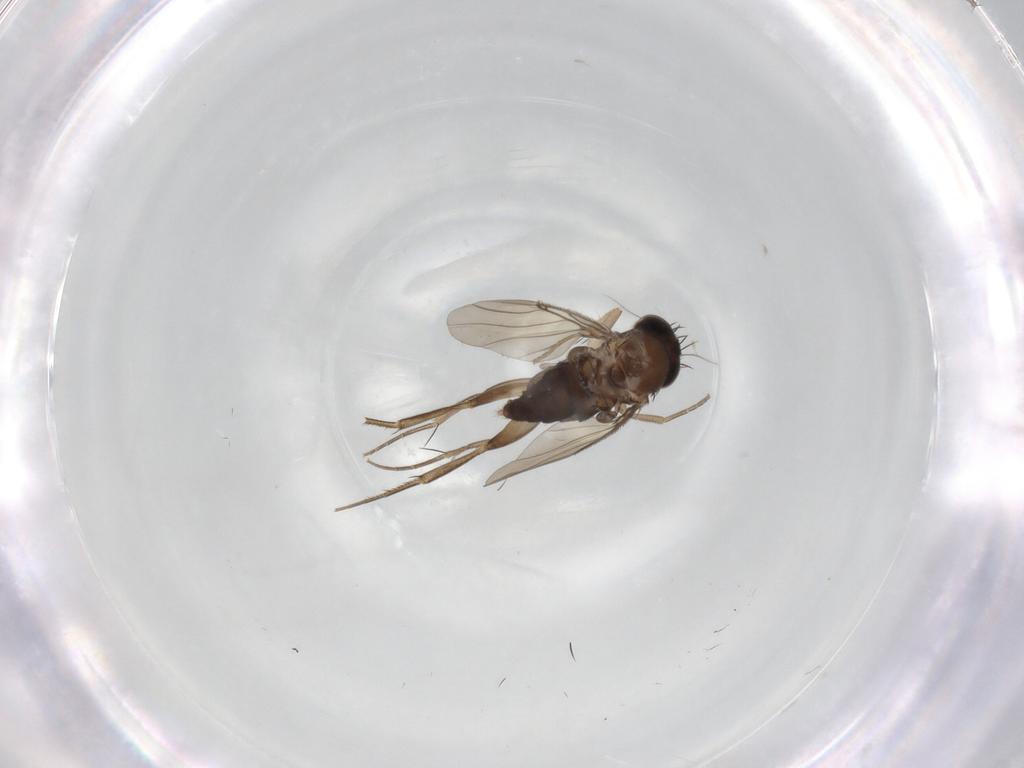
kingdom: Animalia
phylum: Arthropoda
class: Insecta
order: Diptera
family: Phoridae
